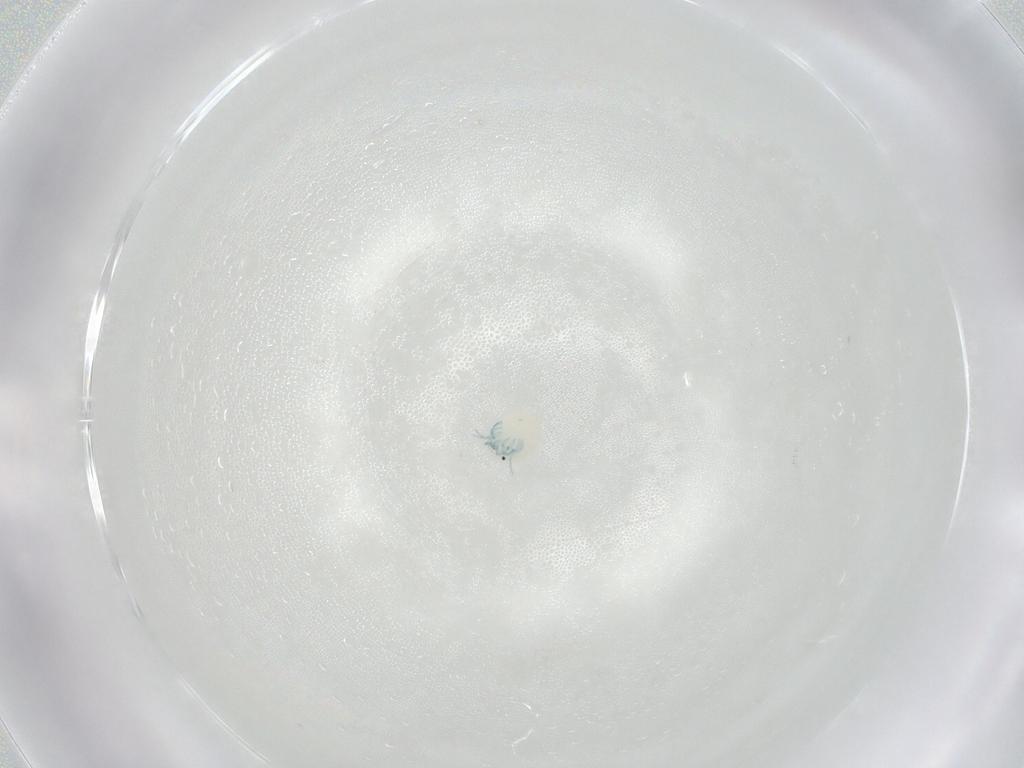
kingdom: Animalia
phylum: Arthropoda
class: Arachnida
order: Trombidiformes
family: Arrenuridae
